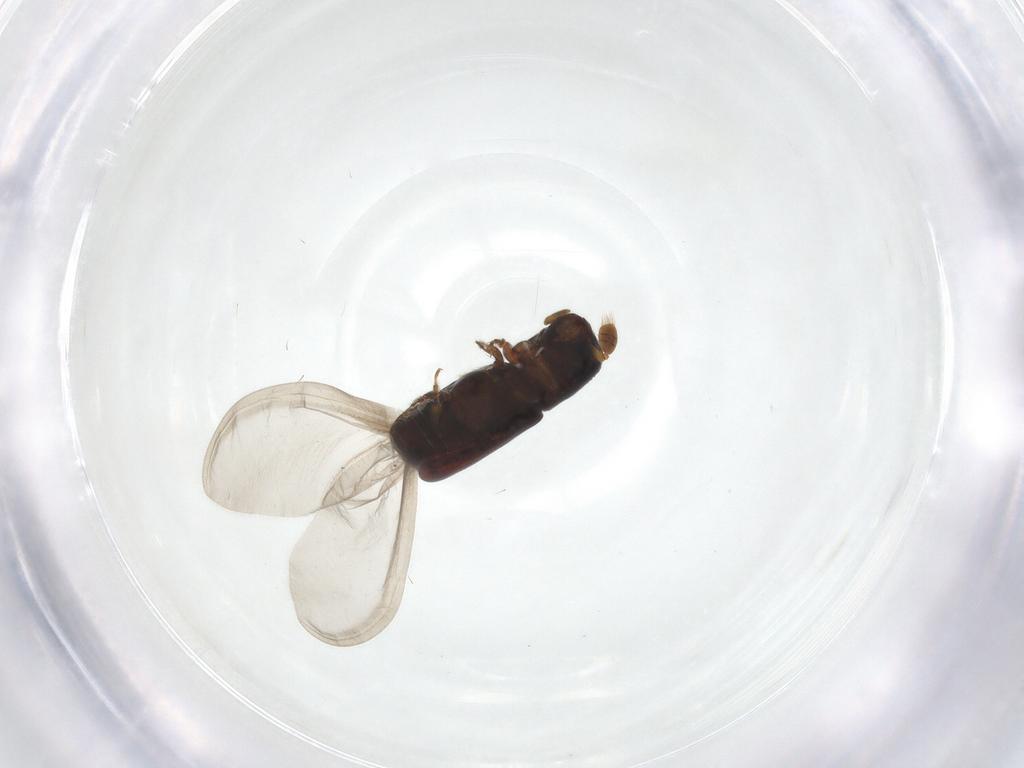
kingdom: Animalia
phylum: Arthropoda
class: Insecta
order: Coleoptera
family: Curculionidae
